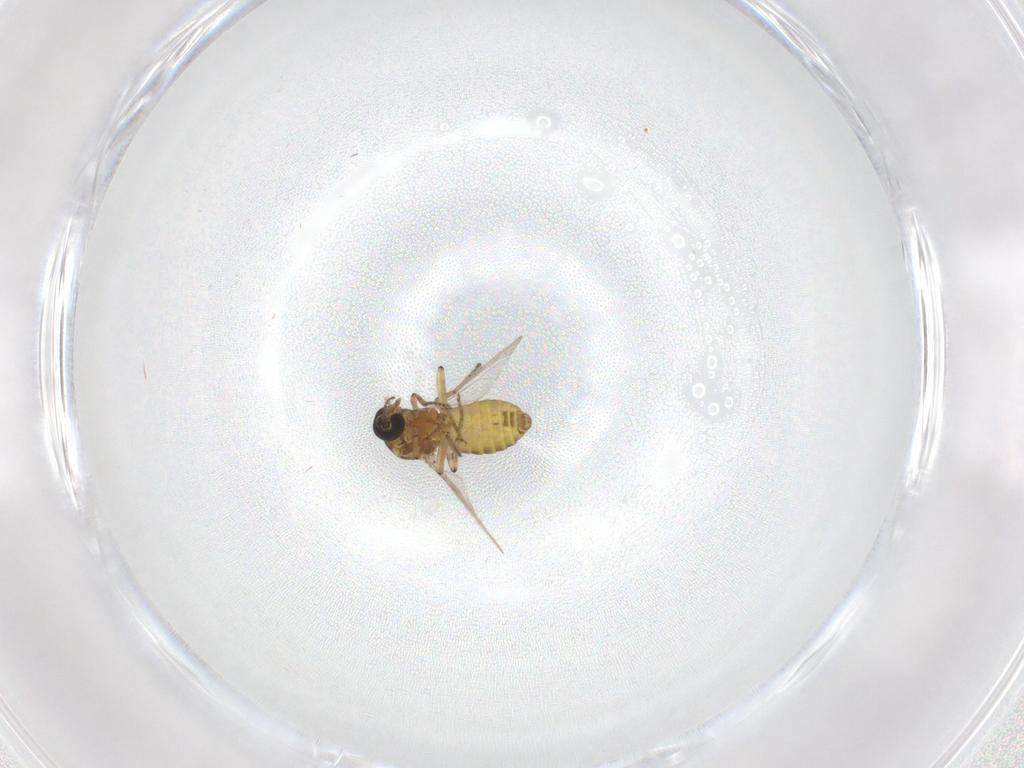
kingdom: Animalia
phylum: Arthropoda
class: Insecta
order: Diptera
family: Ceratopogonidae
